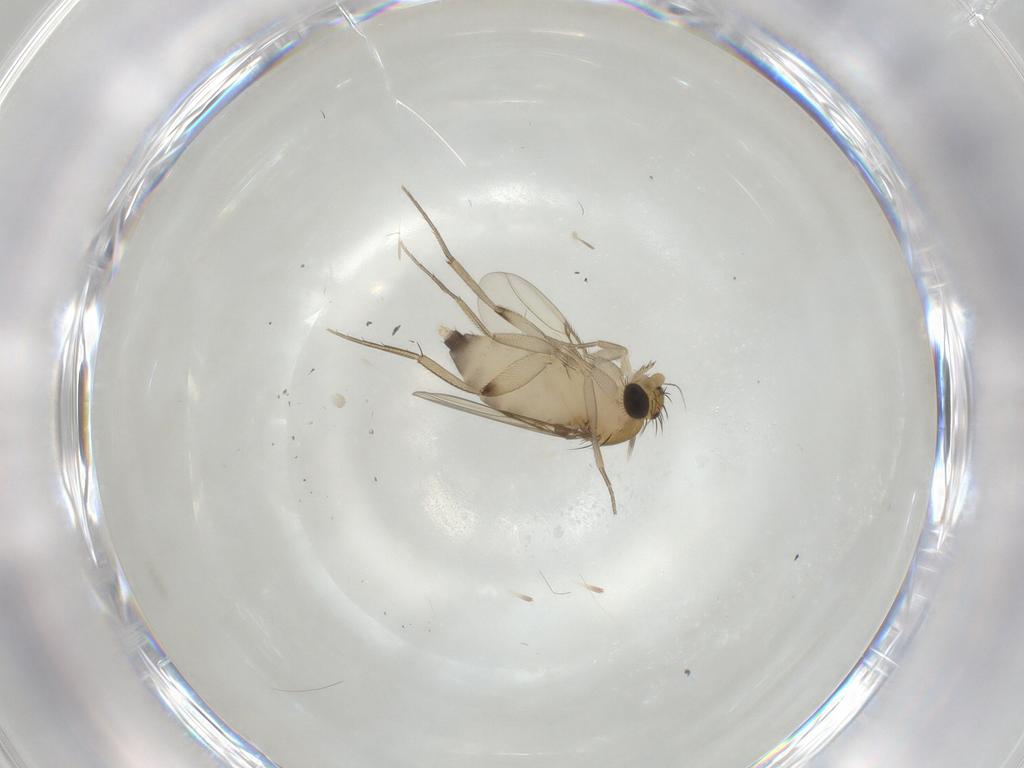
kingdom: Animalia
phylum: Arthropoda
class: Insecta
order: Diptera
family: Phoridae
